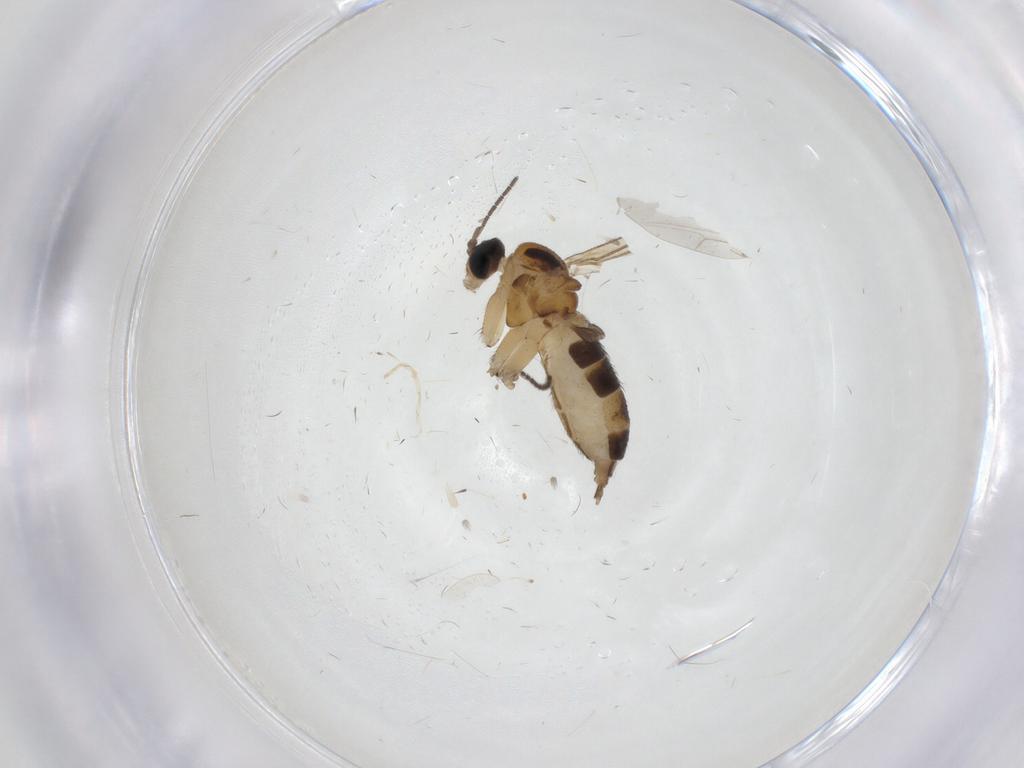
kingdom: Animalia
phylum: Arthropoda
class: Insecta
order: Diptera
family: Sciaridae
